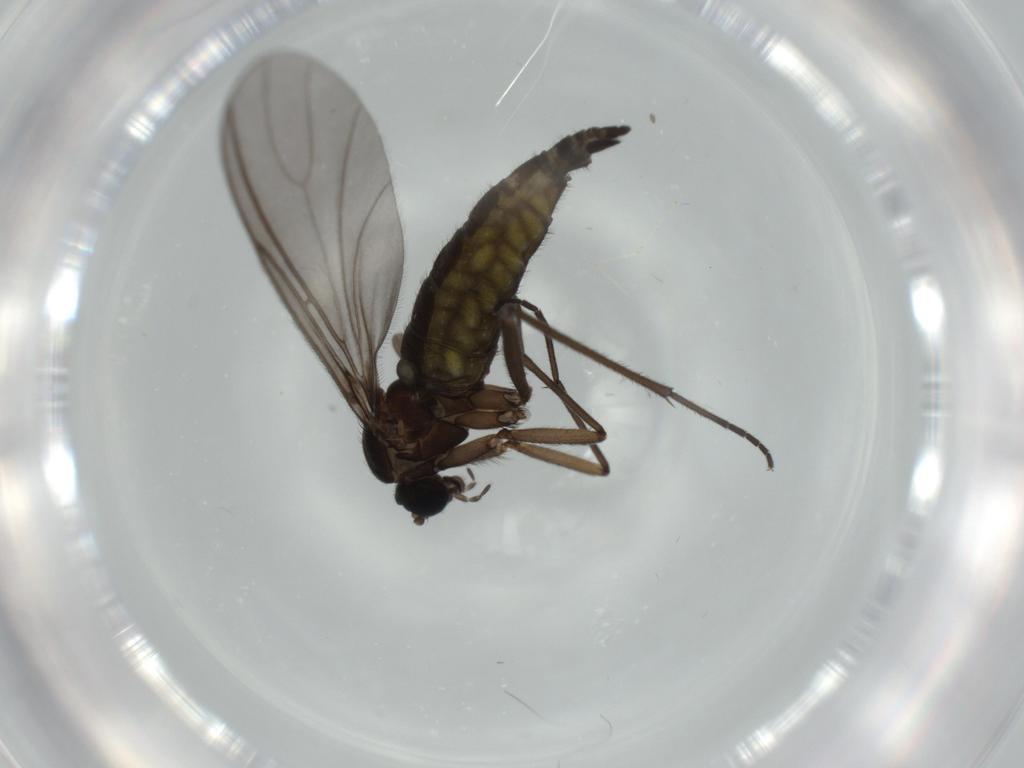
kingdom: Animalia
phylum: Arthropoda
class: Insecta
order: Diptera
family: Sciaridae
